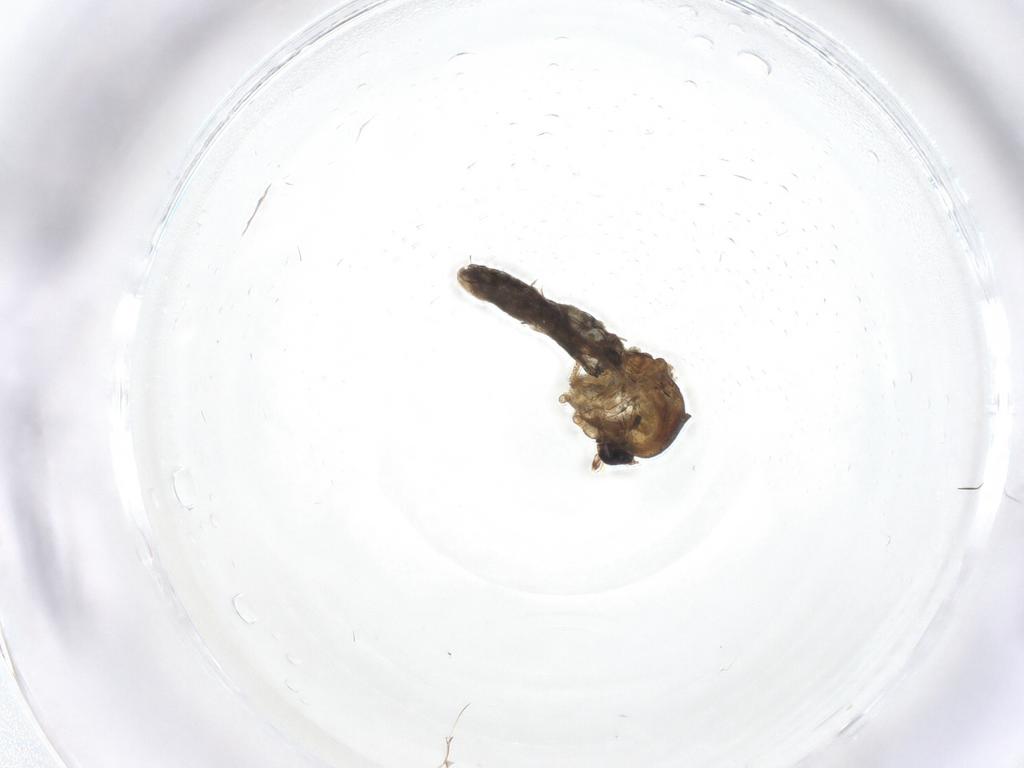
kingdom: Animalia
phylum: Arthropoda
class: Insecta
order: Diptera
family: Ceratopogonidae
